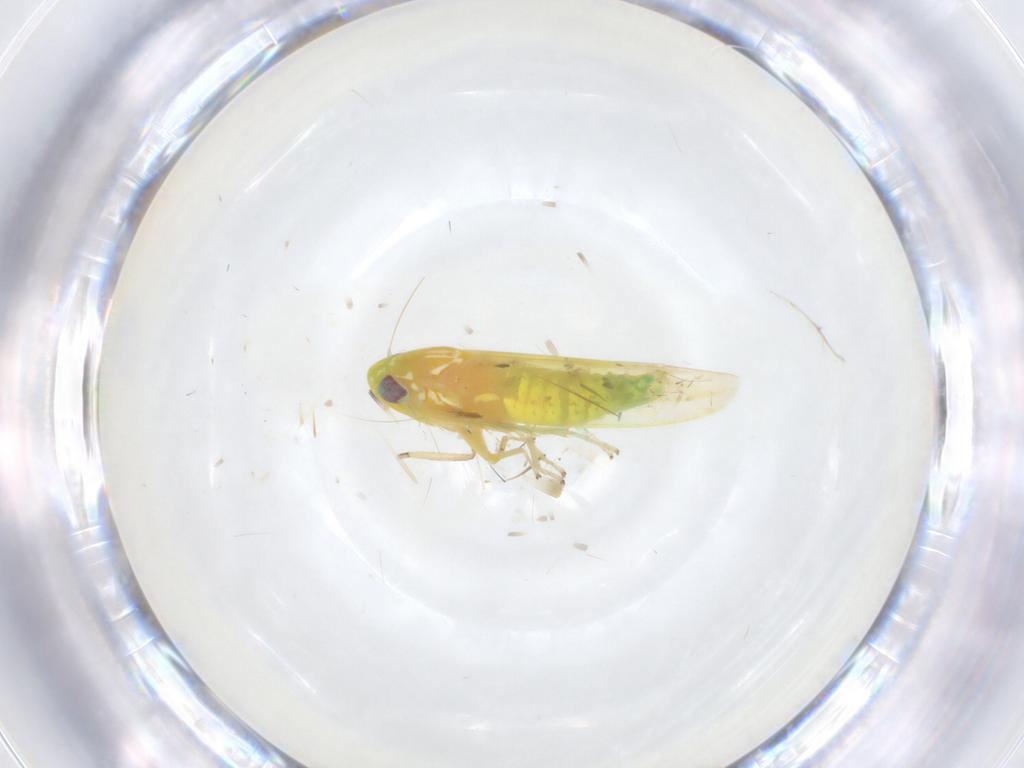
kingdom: Animalia
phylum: Arthropoda
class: Insecta
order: Hemiptera
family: Cicadellidae
